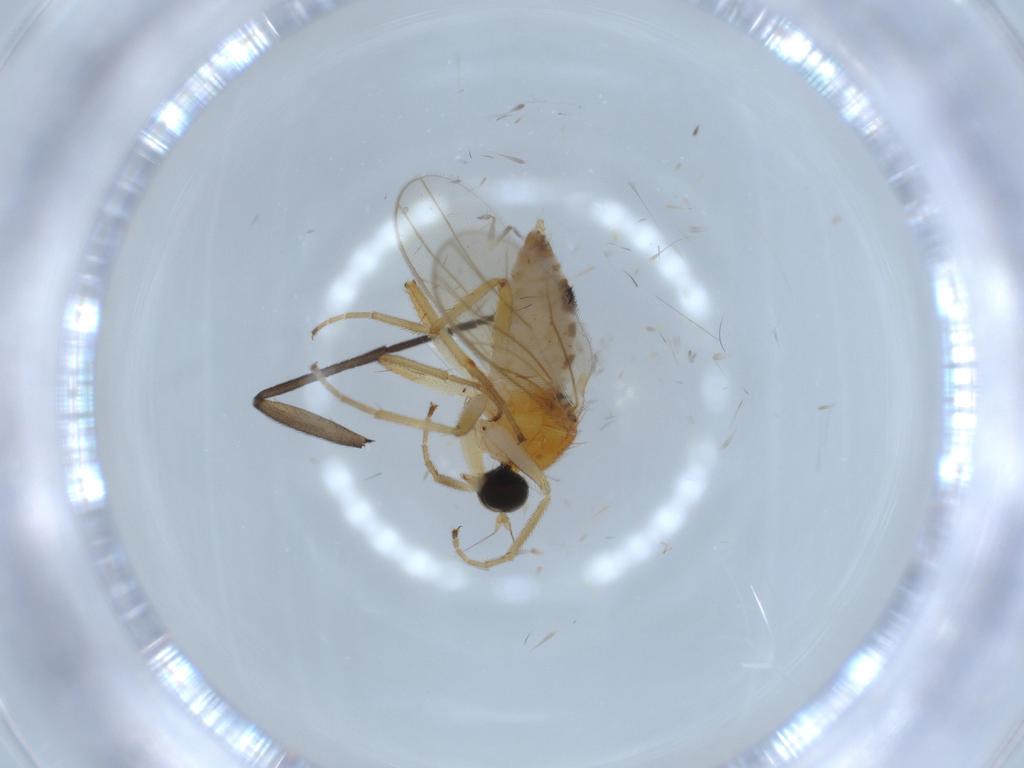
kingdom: Animalia
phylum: Arthropoda
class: Insecta
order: Diptera
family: Hybotidae
